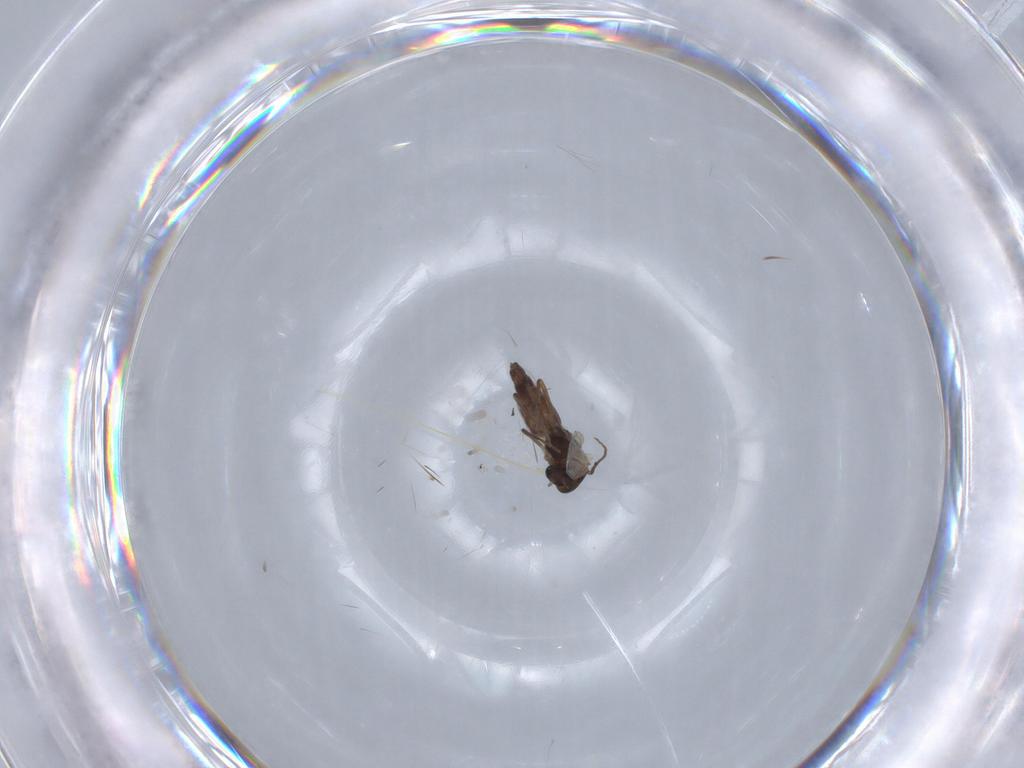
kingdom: Animalia
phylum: Arthropoda
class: Insecta
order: Diptera
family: Chironomidae
